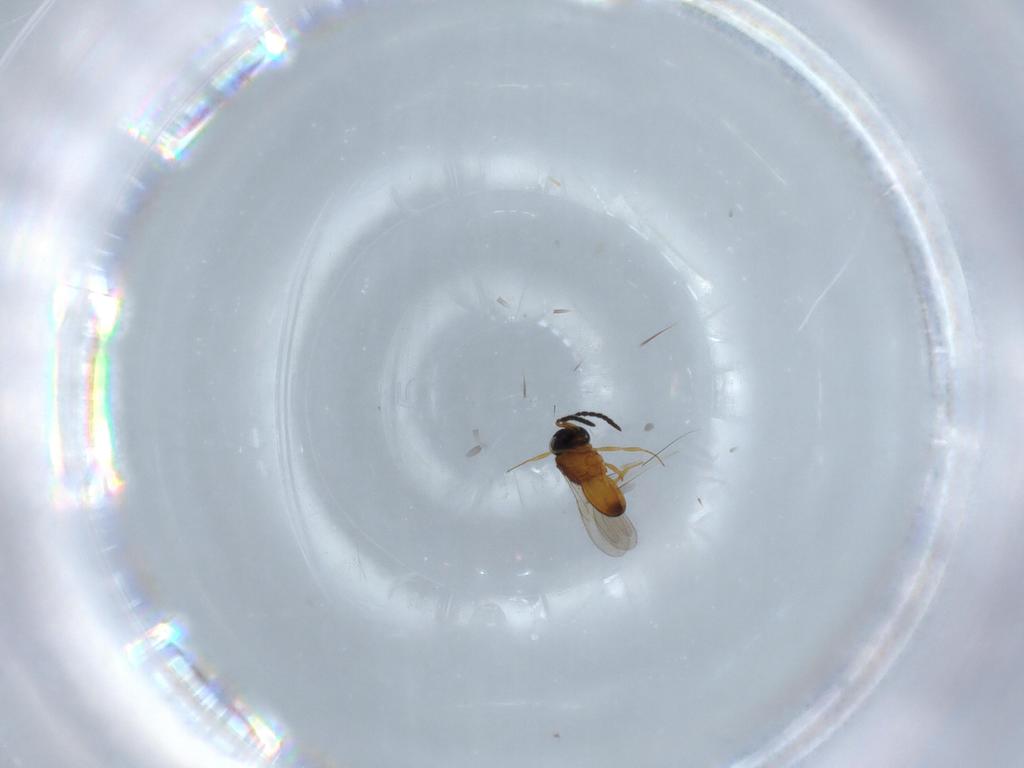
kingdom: Animalia
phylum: Arthropoda
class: Insecta
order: Hymenoptera
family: Scelionidae
